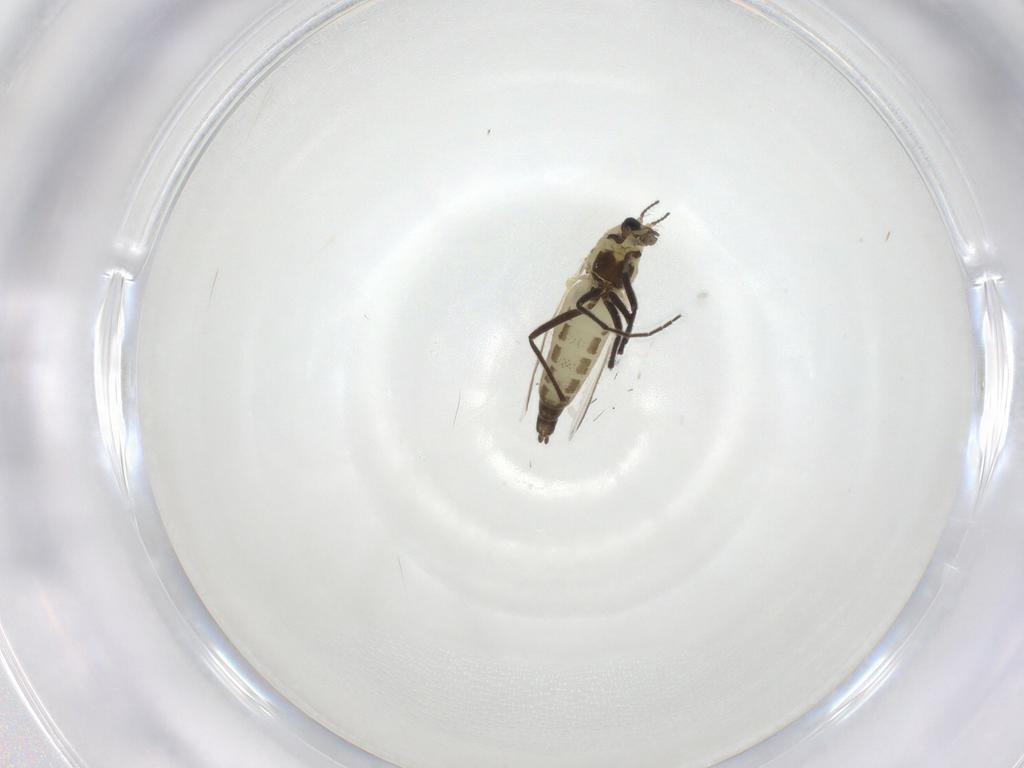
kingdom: Animalia
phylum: Arthropoda
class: Insecta
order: Diptera
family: Chironomidae
